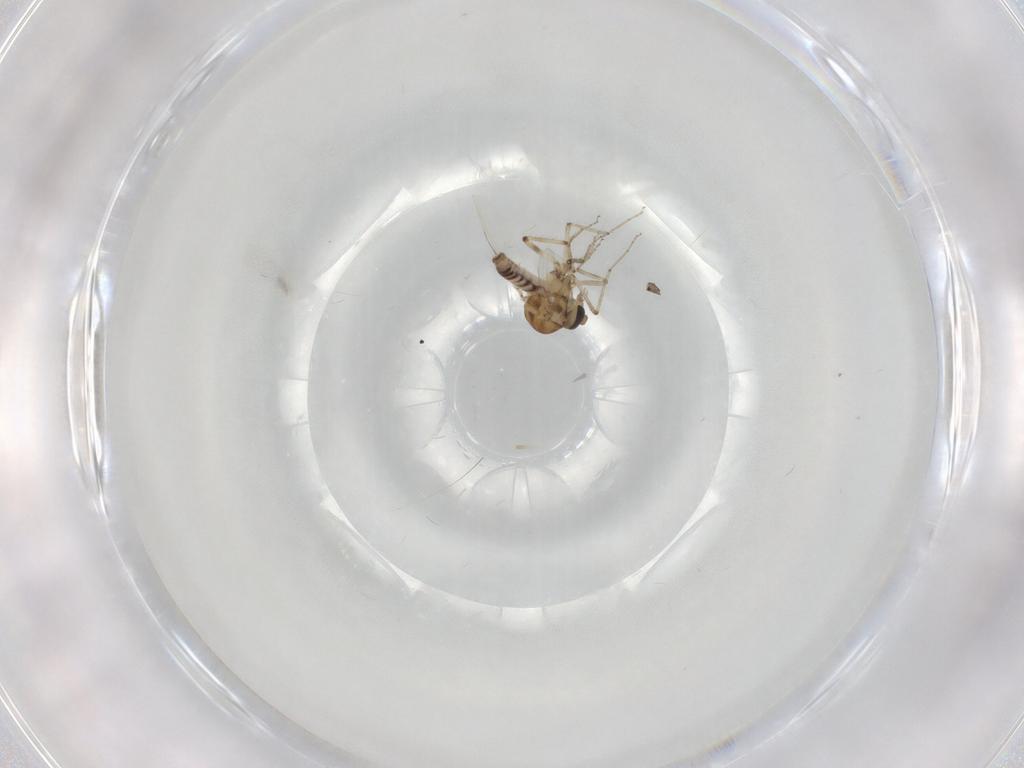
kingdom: Animalia
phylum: Arthropoda
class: Insecta
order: Diptera
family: Ceratopogonidae
